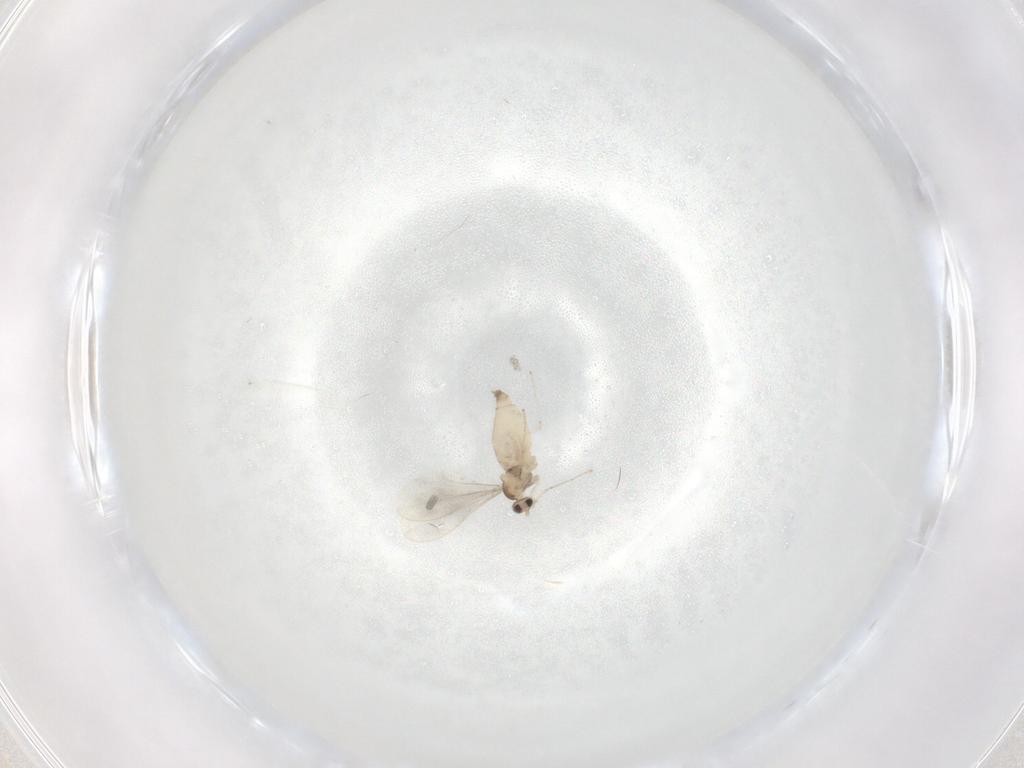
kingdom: Animalia
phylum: Arthropoda
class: Insecta
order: Diptera
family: Cecidomyiidae
